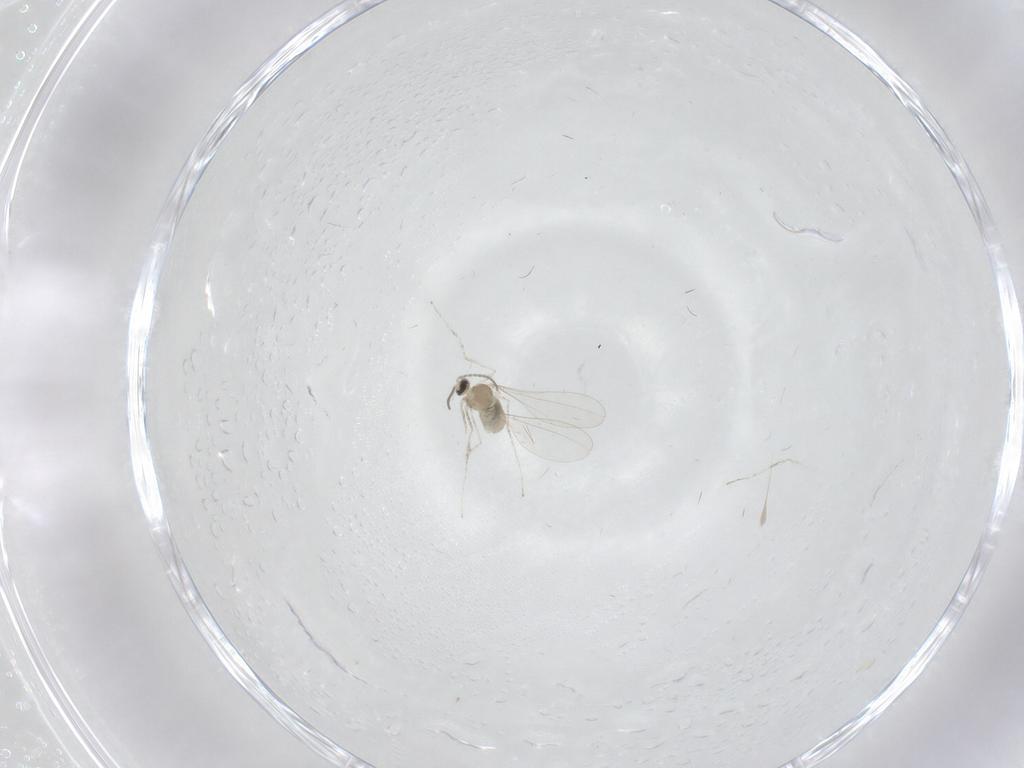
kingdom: Animalia
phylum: Arthropoda
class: Insecta
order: Diptera
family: Cecidomyiidae
